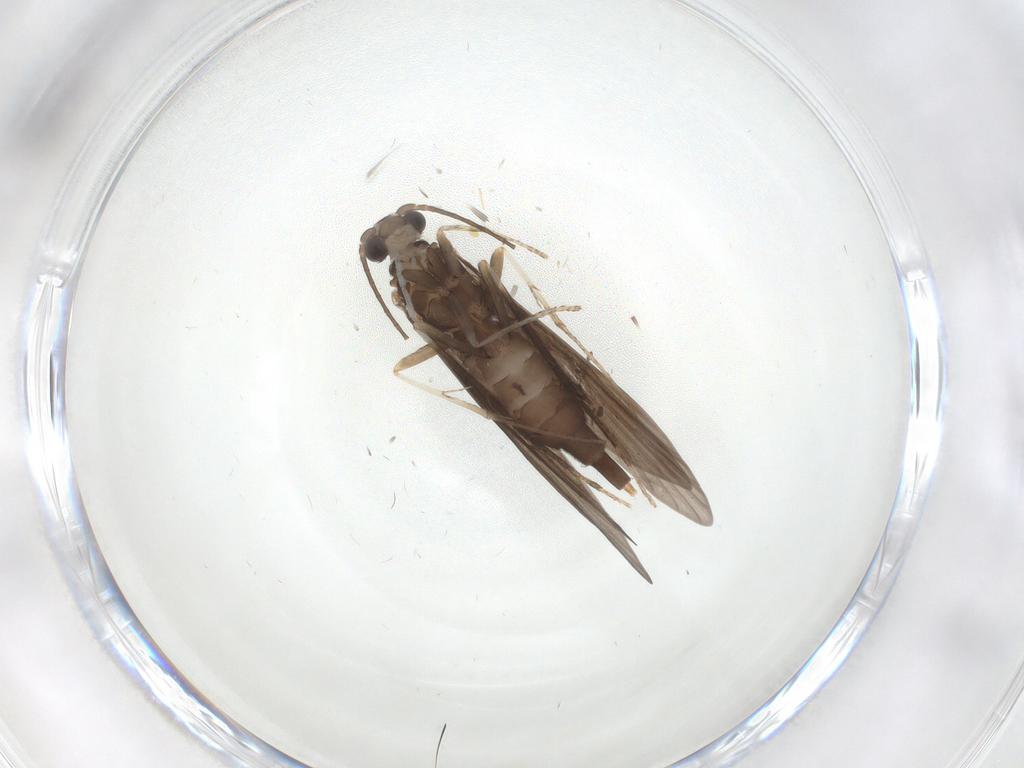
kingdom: Animalia
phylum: Arthropoda
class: Insecta
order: Trichoptera
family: Xiphocentronidae
